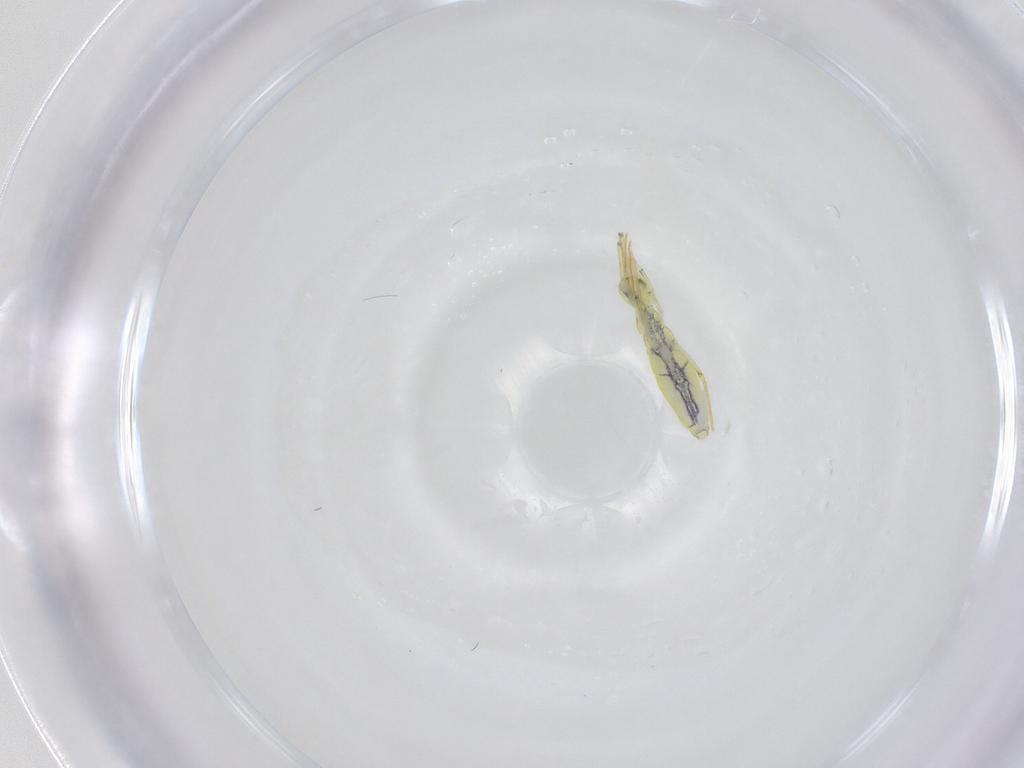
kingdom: Animalia
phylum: Arthropoda
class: Collembola
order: Entomobryomorpha
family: Entomobryidae
